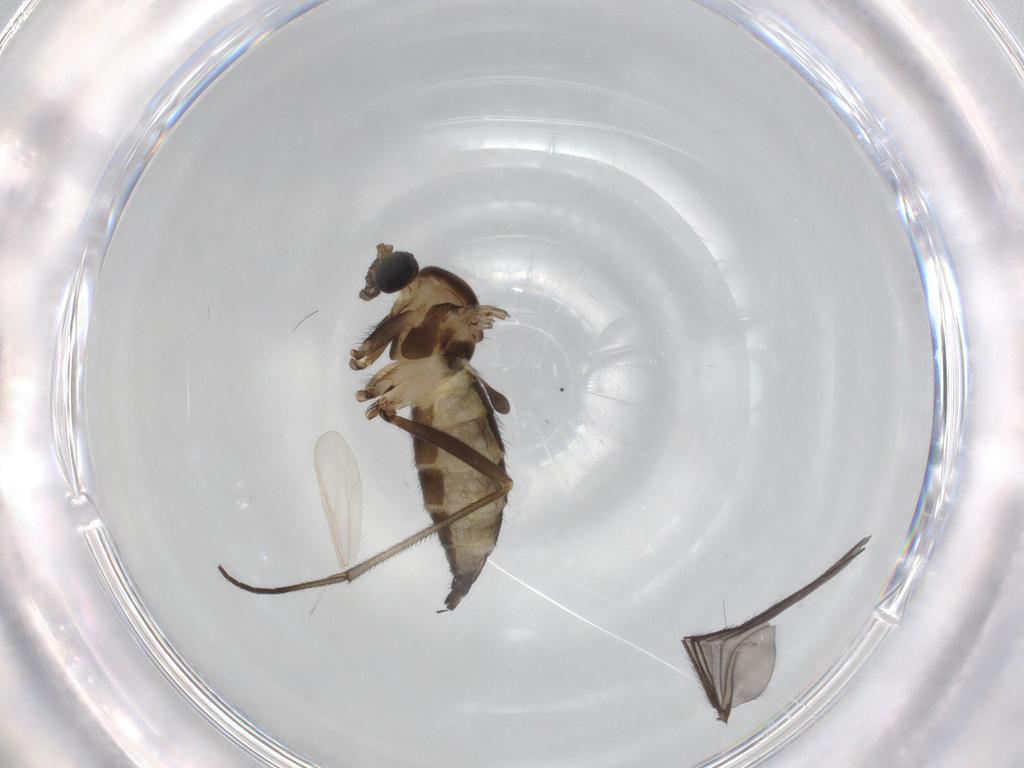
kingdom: Animalia
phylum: Arthropoda
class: Insecta
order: Diptera
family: Sciaridae
